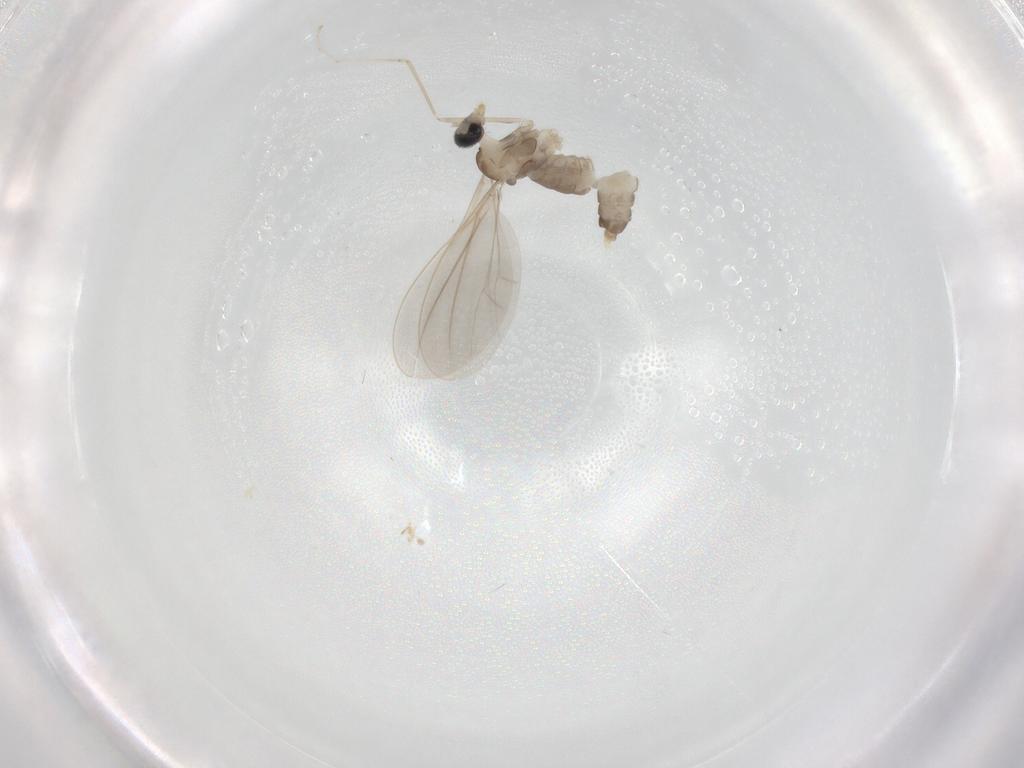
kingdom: Animalia
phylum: Arthropoda
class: Insecta
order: Diptera
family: Cecidomyiidae
